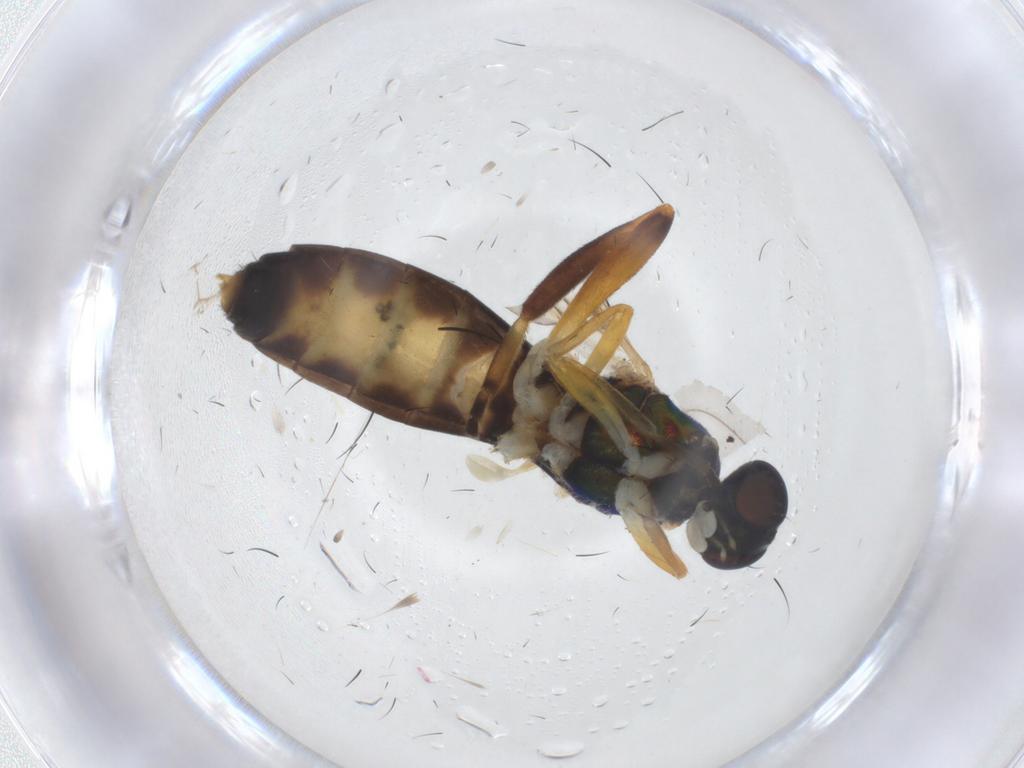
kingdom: Animalia
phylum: Arthropoda
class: Insecta
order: Diptera
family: Stratiomyidae
